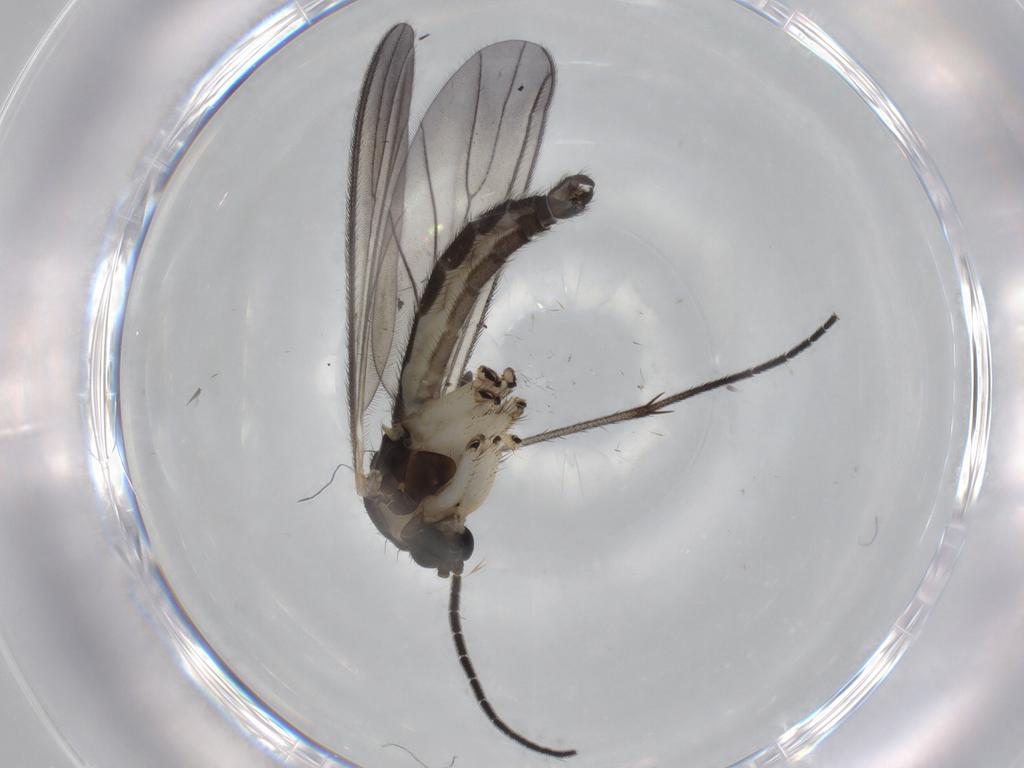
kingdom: Animalia
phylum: Arthropoda
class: Insecta
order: Diptera
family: Sciaridae
